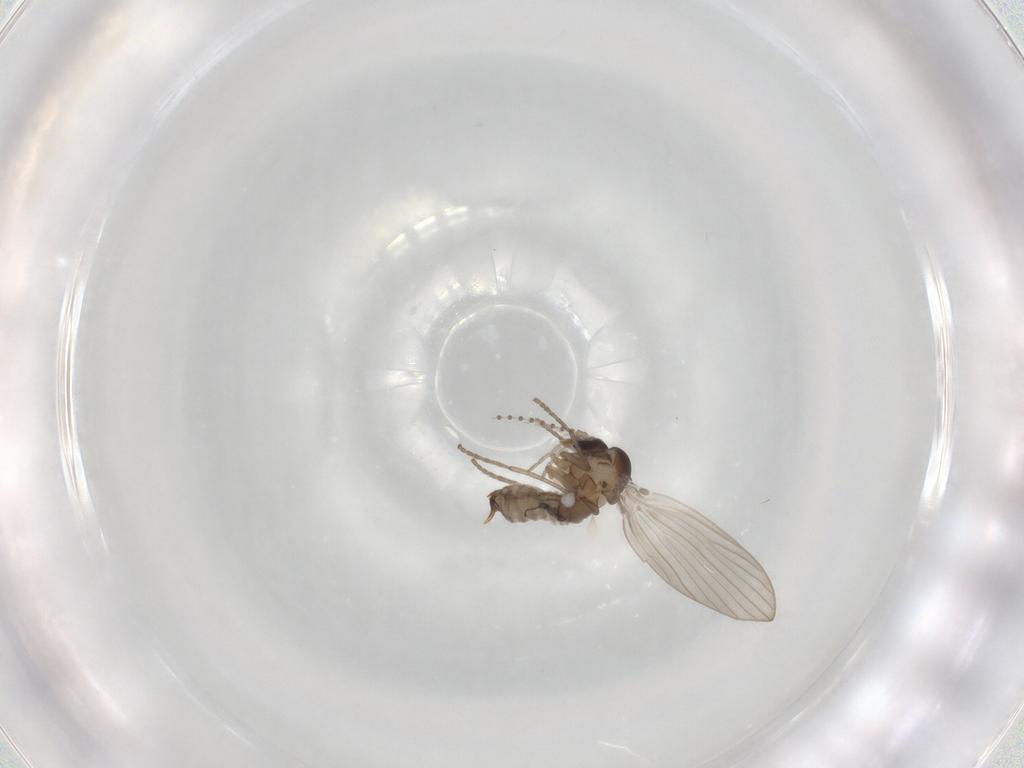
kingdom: Animalia
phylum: Arthropoda
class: Insecta
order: Diptera
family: Psychodidae
